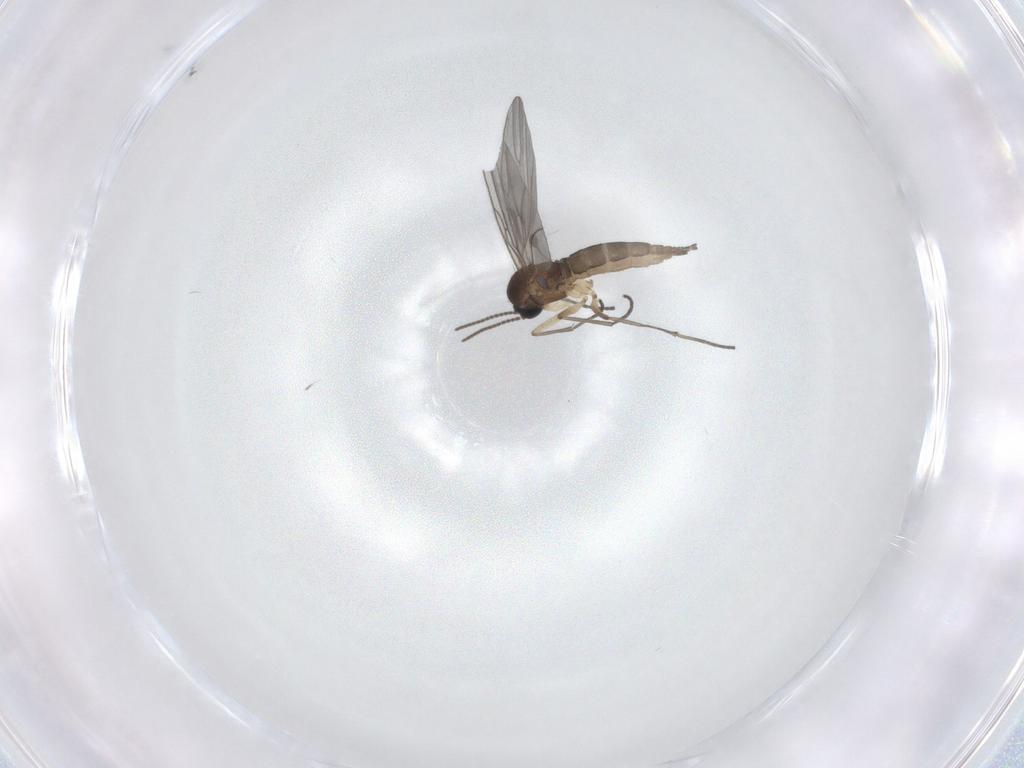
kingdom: Animalia
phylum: Arthropoda
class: Insecta
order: Diptera
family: Sciaridae
